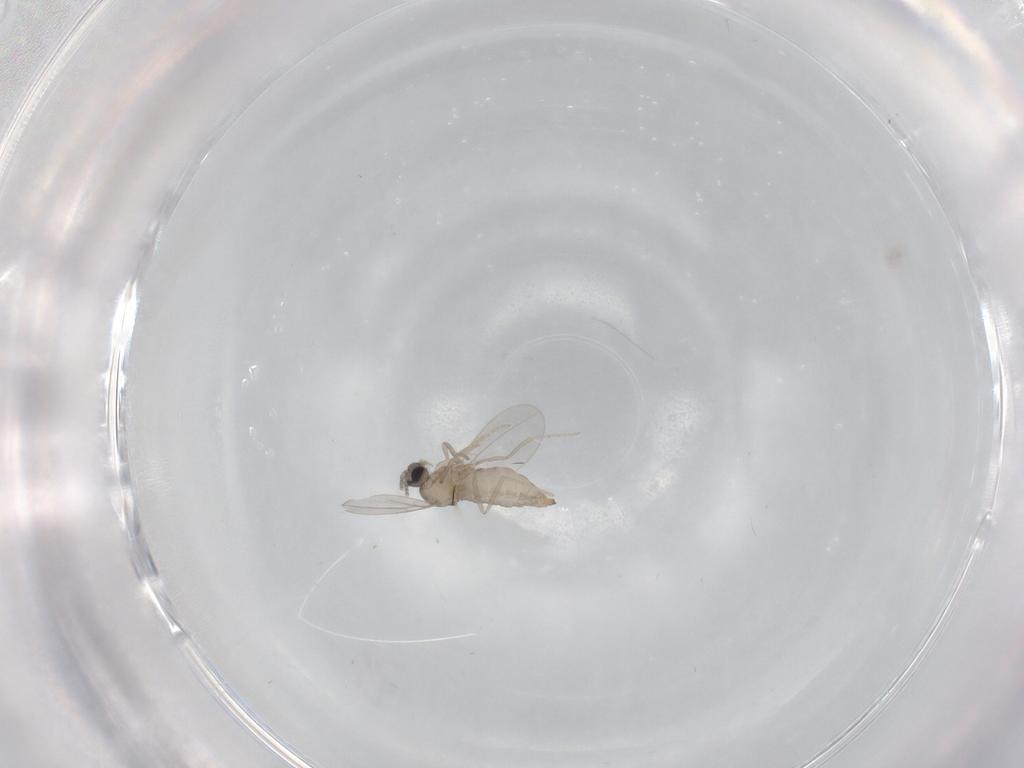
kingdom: Animalia
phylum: Arthropoda
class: Insecta
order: Diptera
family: Cecidomyiidae
